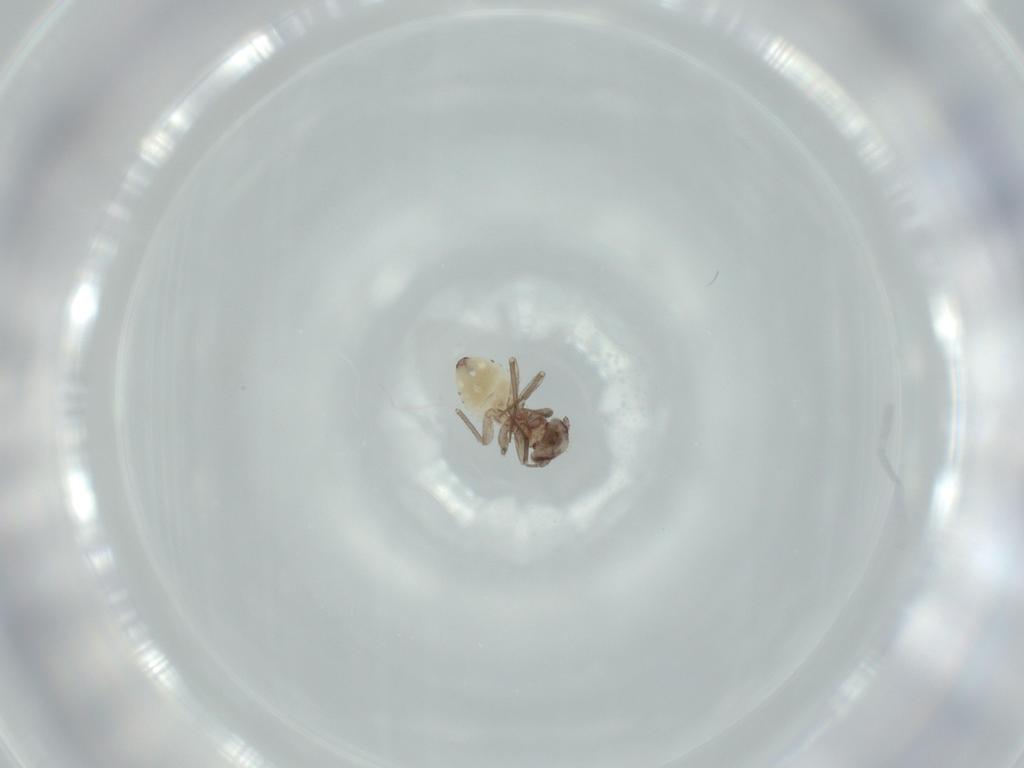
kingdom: Animalia
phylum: Arthropoda
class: Insecta
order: Psocodea
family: Lepidopsocidae
